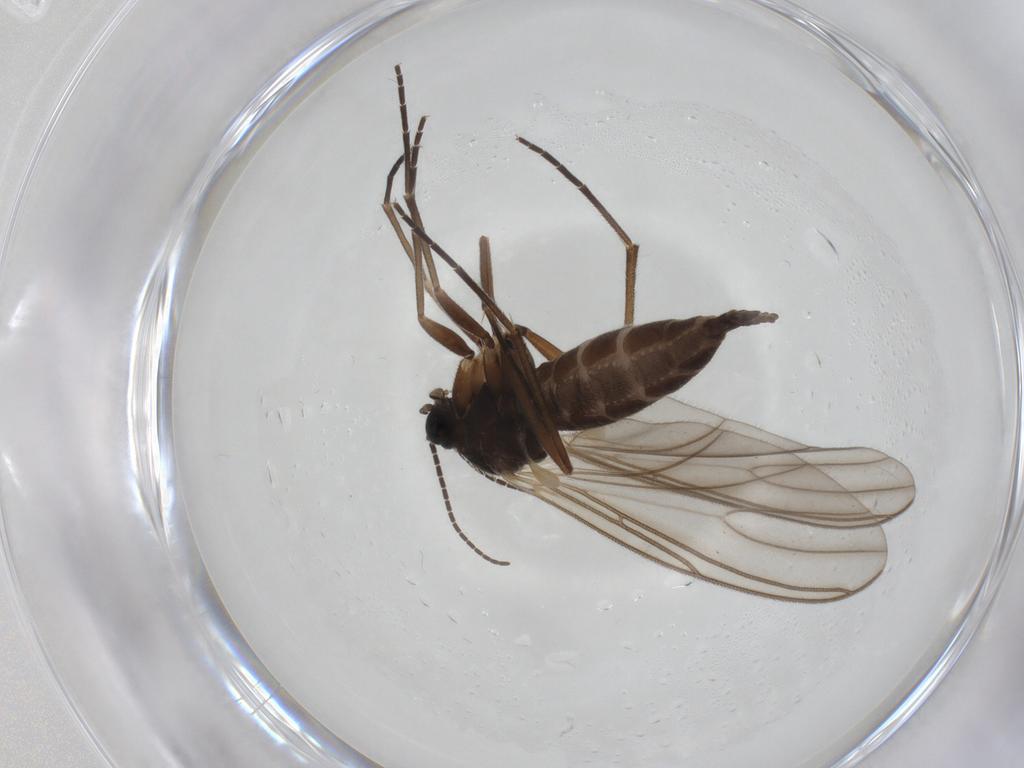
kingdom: Animalia
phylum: Arthropoda
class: Insecta
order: Diptera
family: Sciaridae
